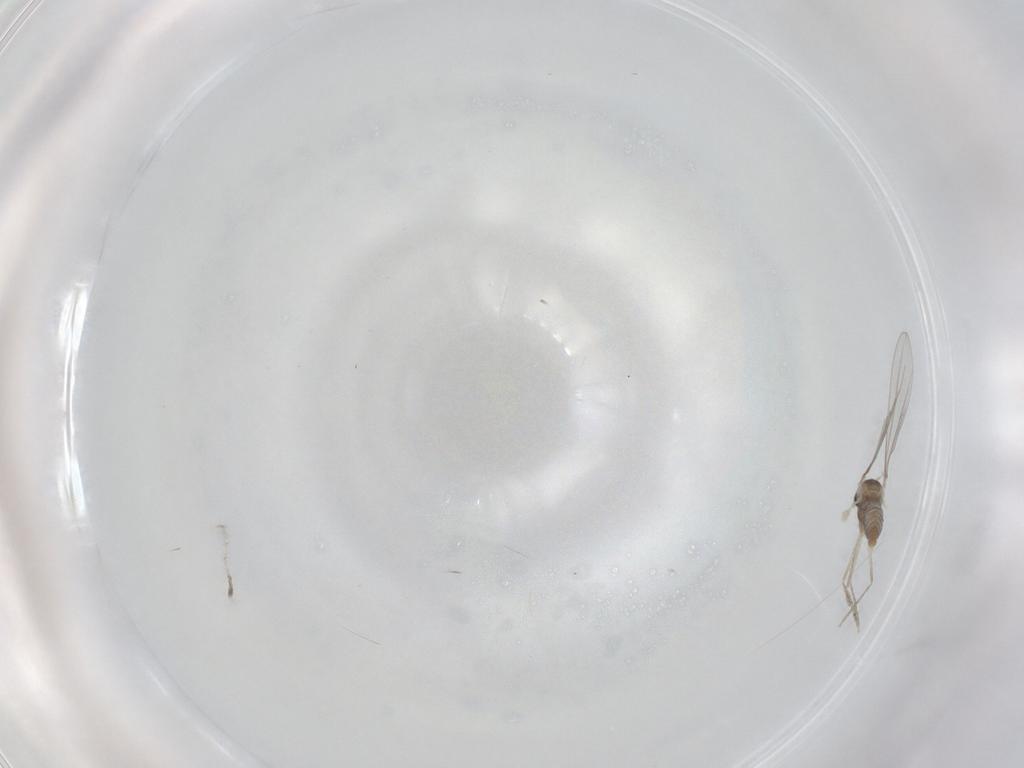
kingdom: Animalia
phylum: Arthropoda
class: Insecta
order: Diptera
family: Cecidomyiidae
